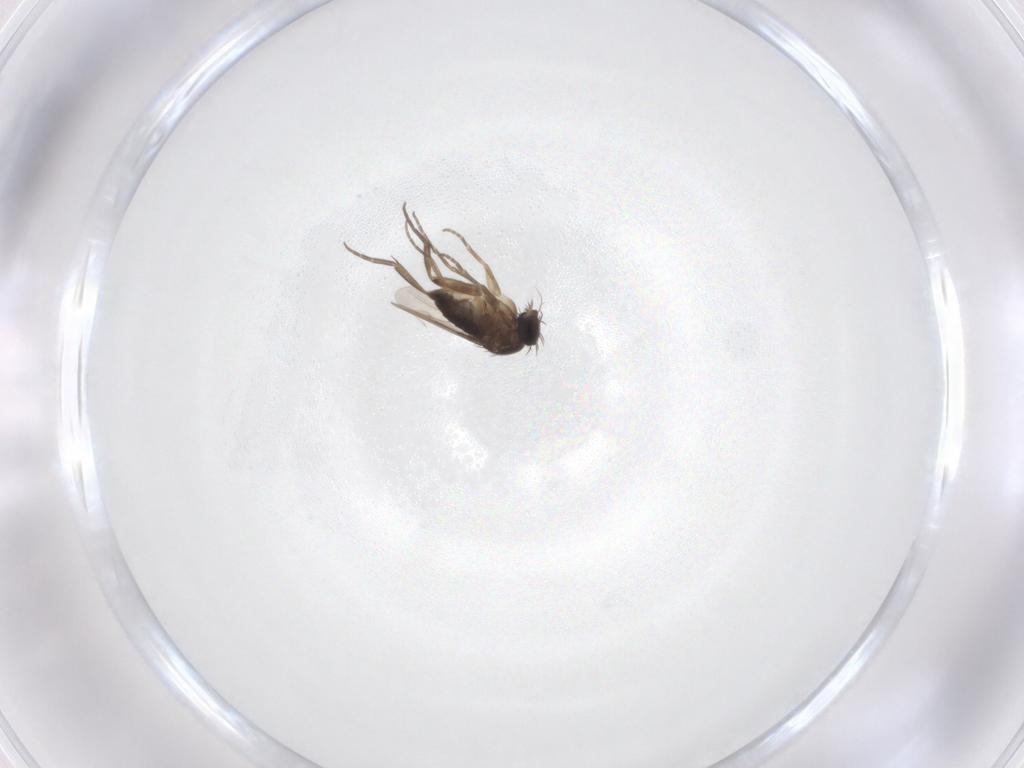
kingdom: Animalia
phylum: Arthropoda
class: Insecta
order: Diptera
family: Phoridae
